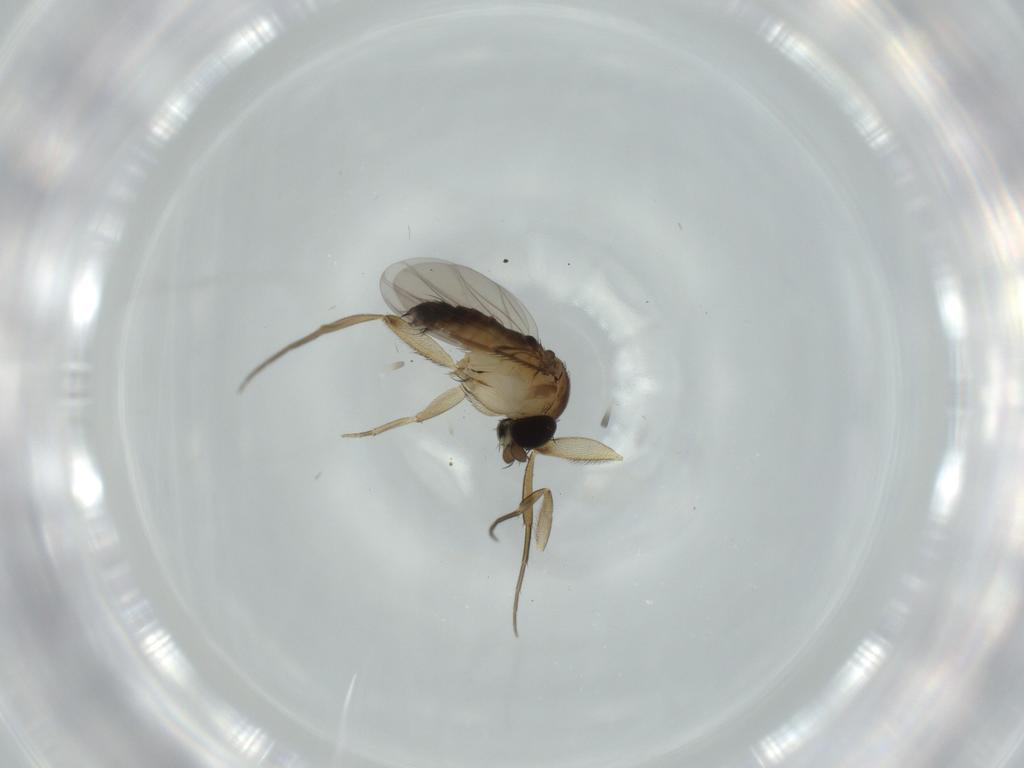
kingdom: Animalia
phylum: Arthropoda
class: Insecta
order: Diptera
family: Phoridae
